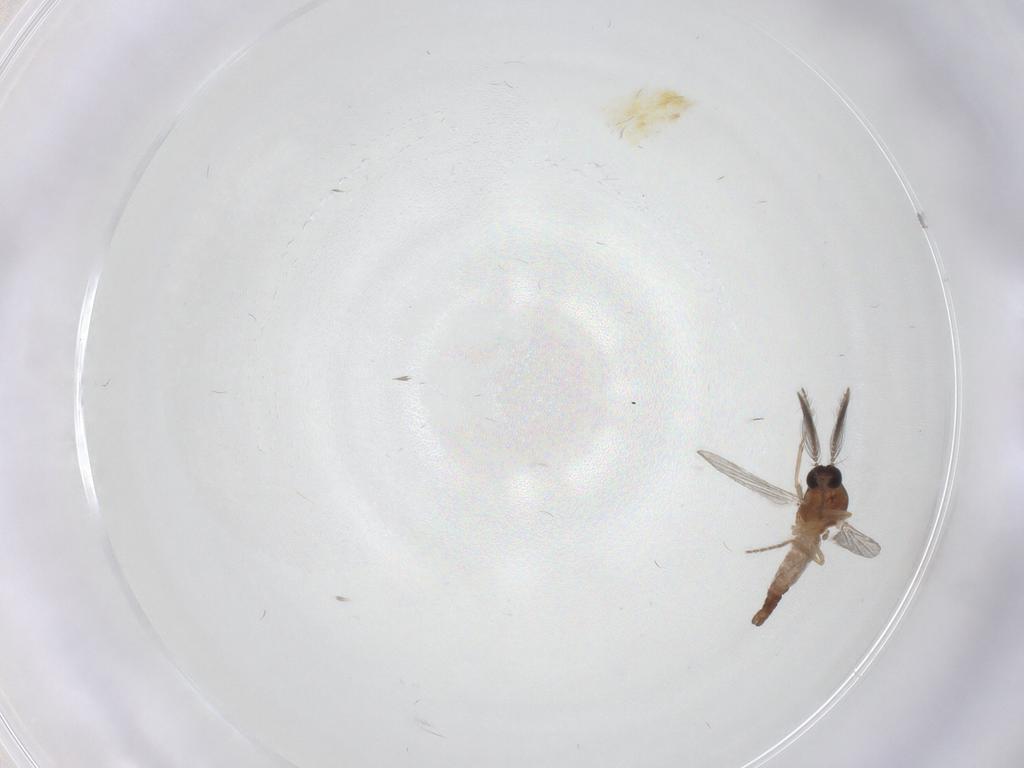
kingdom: Animalia
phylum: Arthropoda
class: Insecta
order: Diptera
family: Ceratopogonidae
